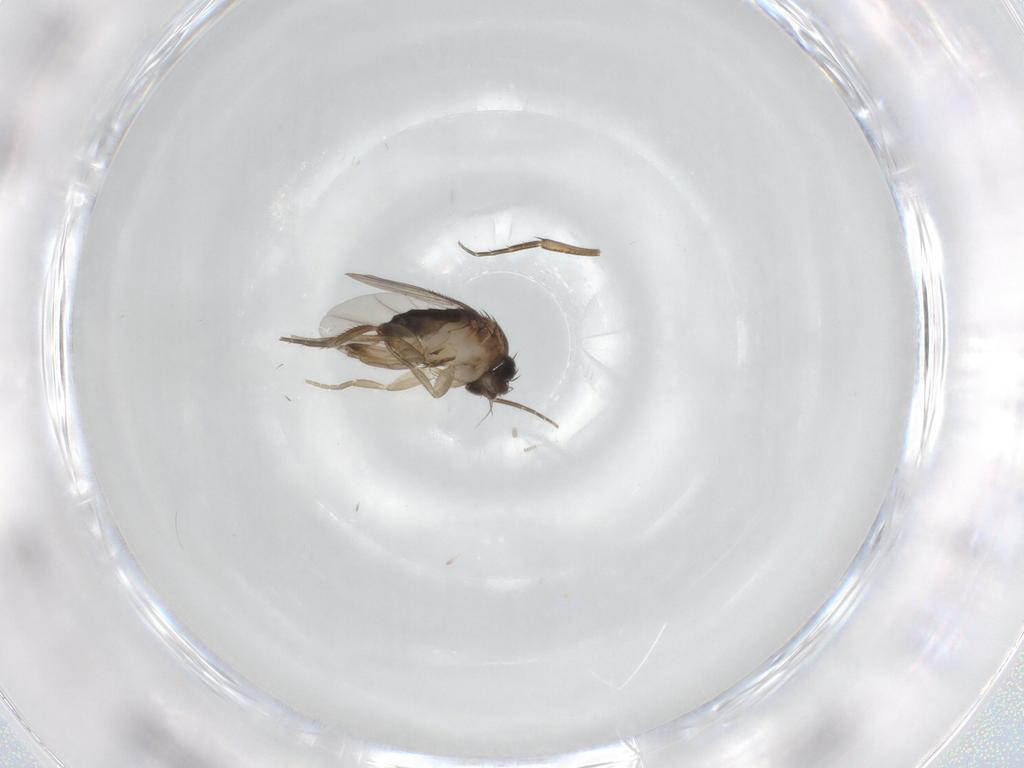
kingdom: Animalia
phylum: Arthropoda
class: Insecta
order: Diptera
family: Phoridae
